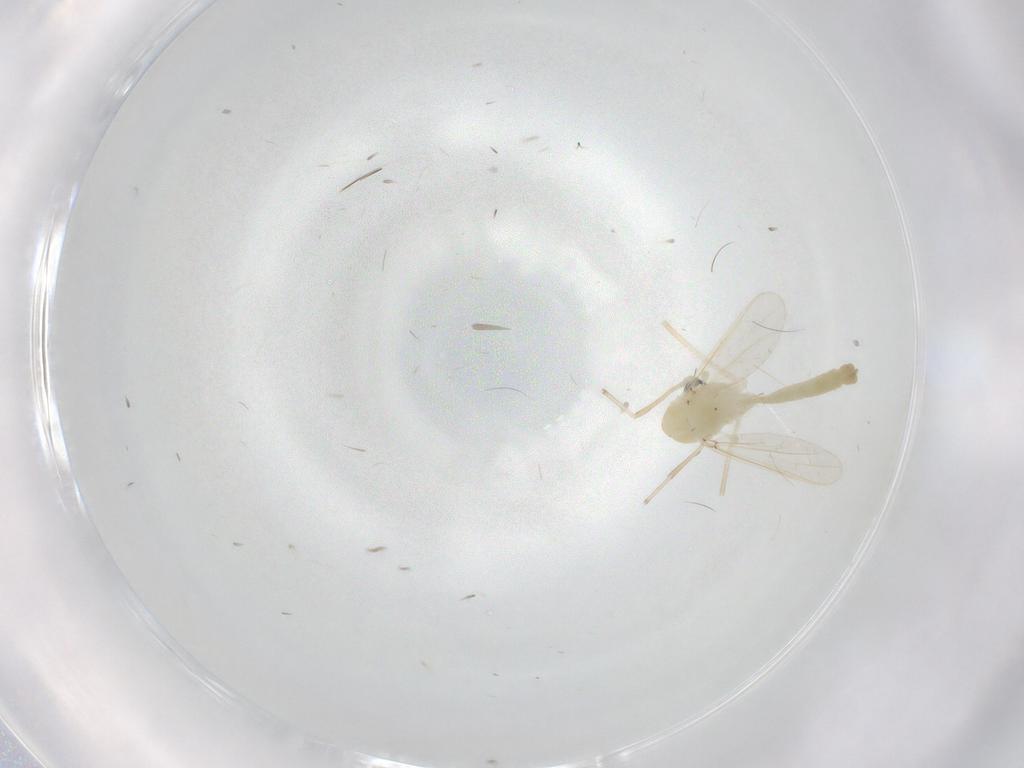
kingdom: Animalia
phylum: Arthropoda
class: Insecta
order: Diptera
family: Chironomidae
